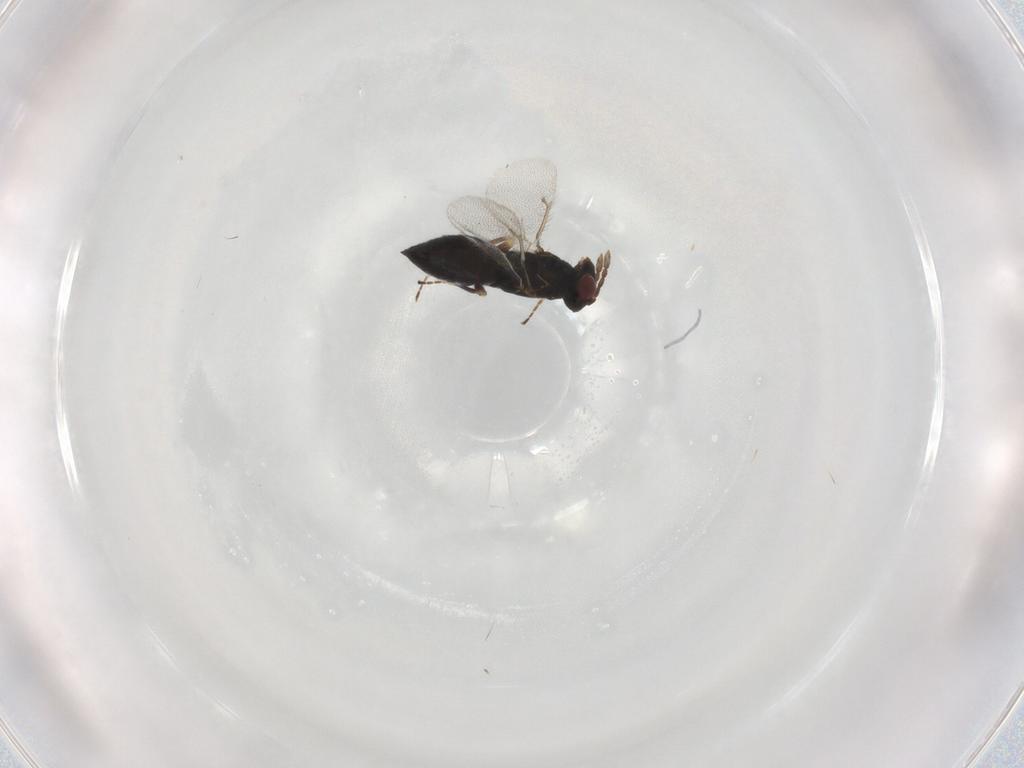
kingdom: Animalia
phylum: Arthropoda
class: Insecta
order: Hymenoptera
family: Eulophidae
